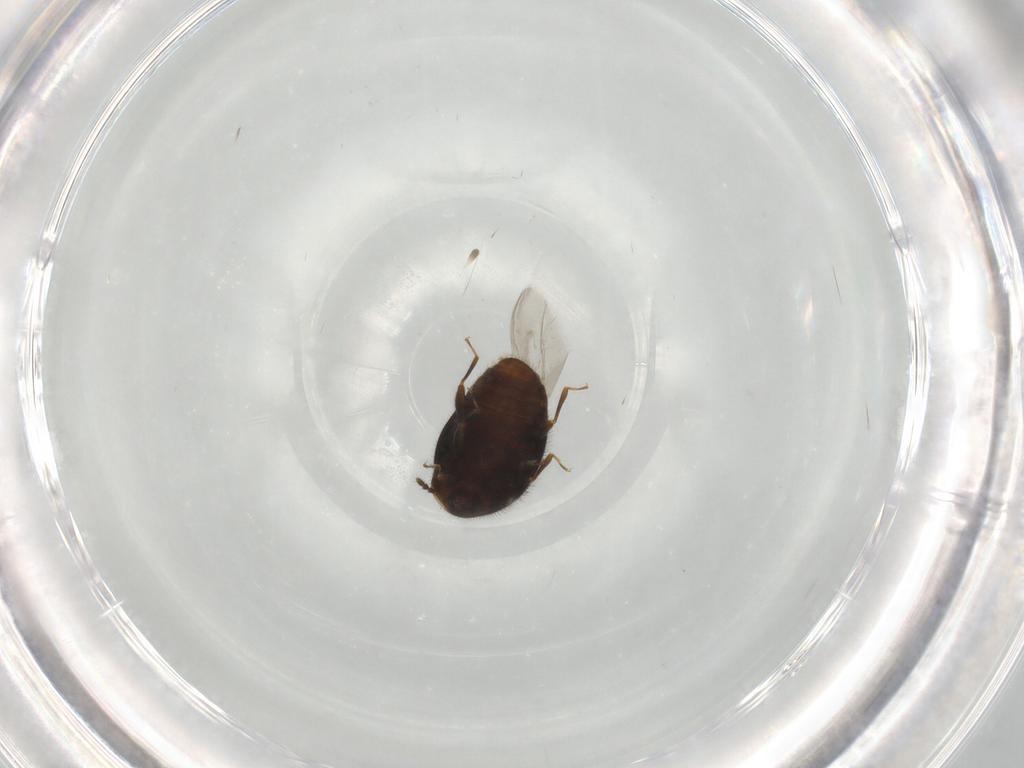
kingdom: Animalia
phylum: Arthropoda
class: Insecta
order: Coleoptera
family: Corylophidae
